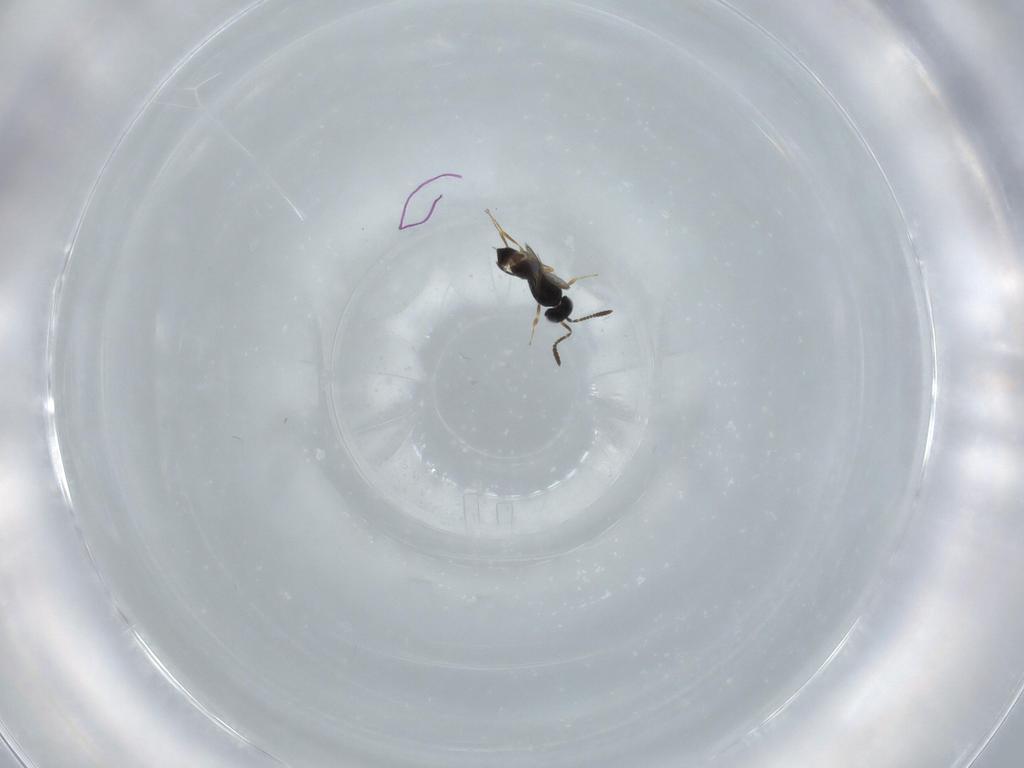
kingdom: Animalia
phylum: Arthropoda
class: Insecta
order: Hymenoptera
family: Scelionidae
